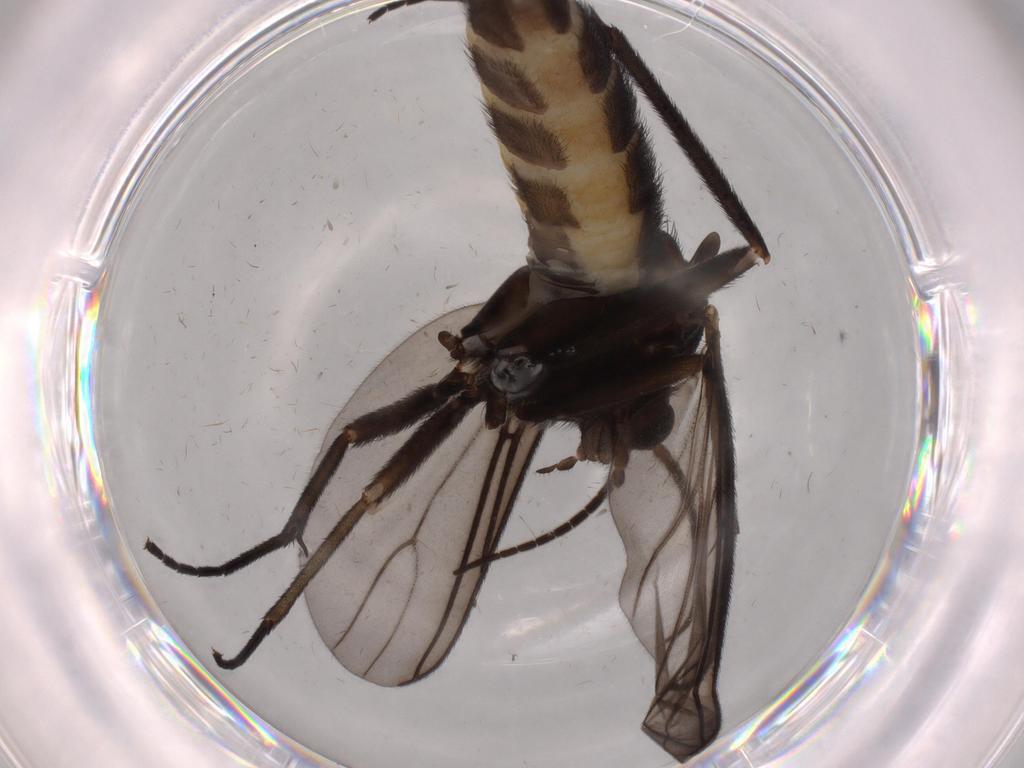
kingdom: Animalia
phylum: Arthropoda
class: Insecta
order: Diptera
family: Sciaridae
